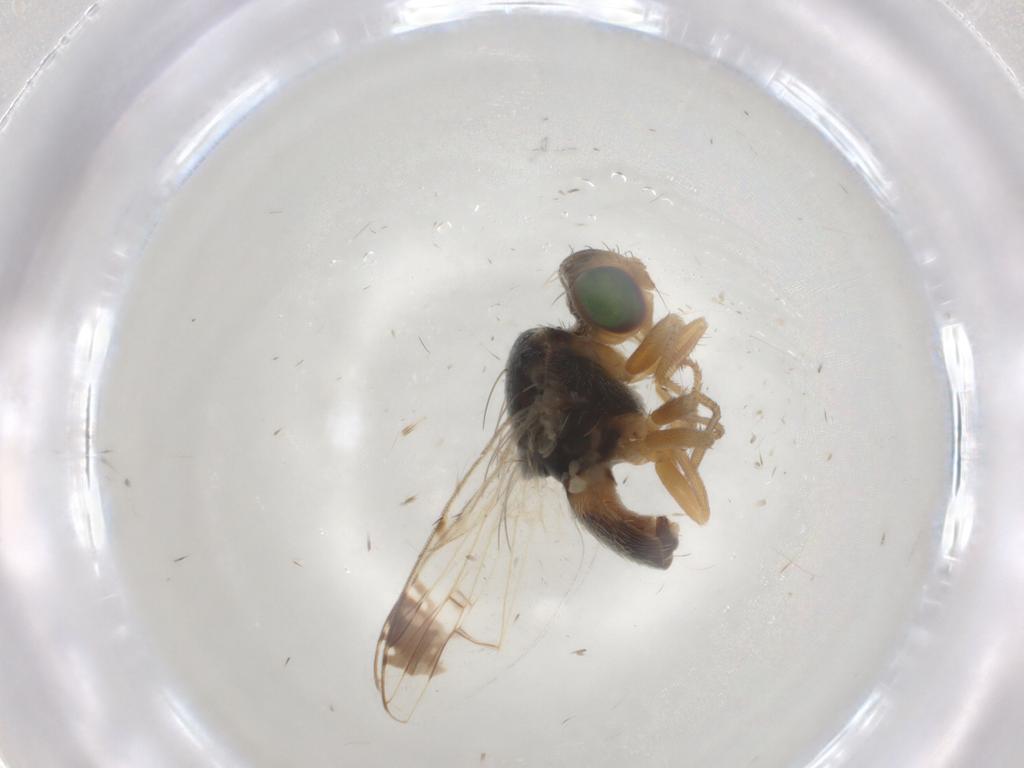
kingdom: Animalia
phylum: Arthropoda
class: Insecta
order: Diptera
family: Tephritidae
